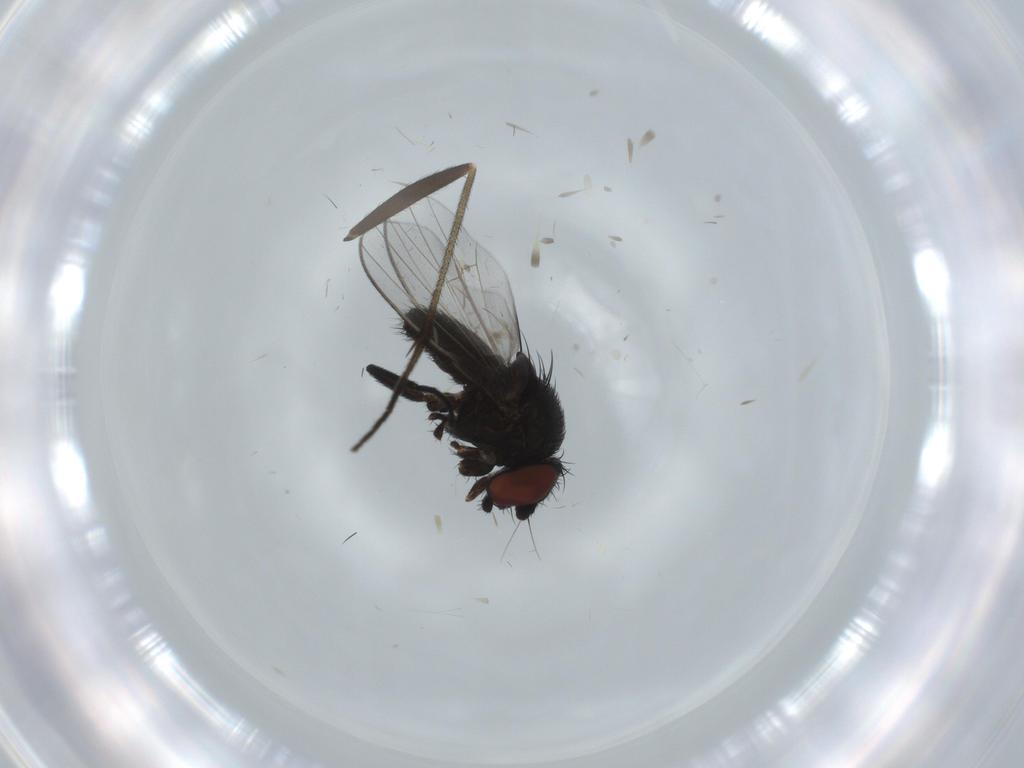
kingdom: Animalia
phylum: Arthropoda
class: Insecta
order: Diptera
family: Milichiidae
